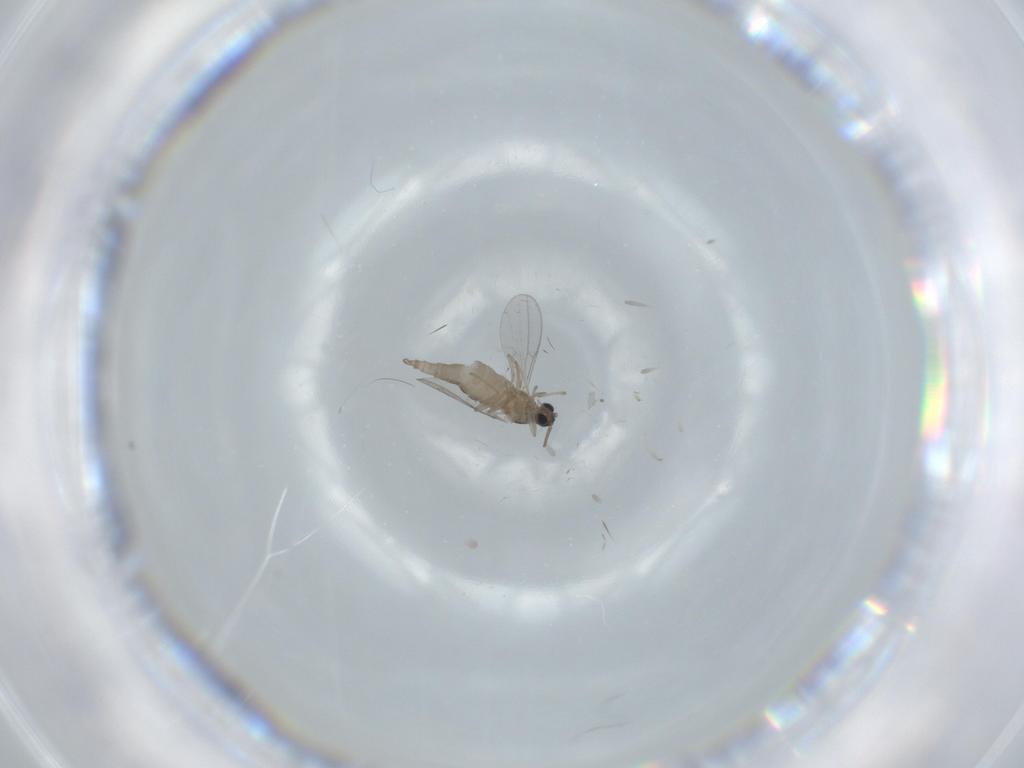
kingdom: Animalia
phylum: Arthropoda
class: Insecta
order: Diptera
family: Cecidomyiidae
